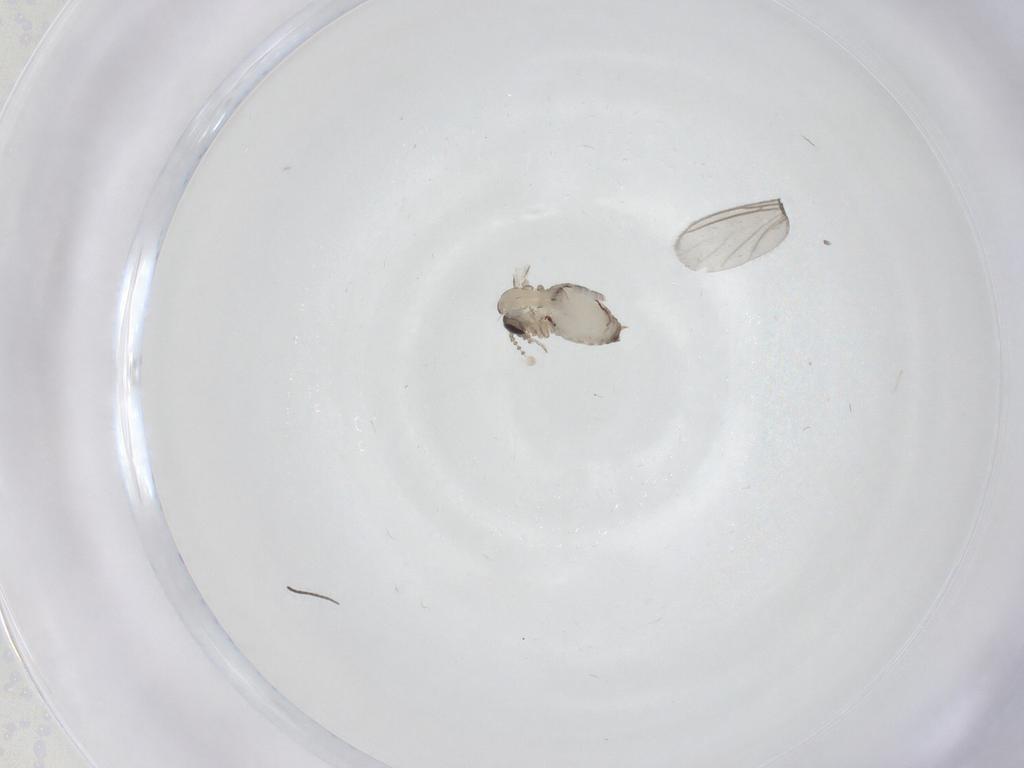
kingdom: Animalia
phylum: Arthropoda
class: Insecta
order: Diptera
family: Psychodidae
